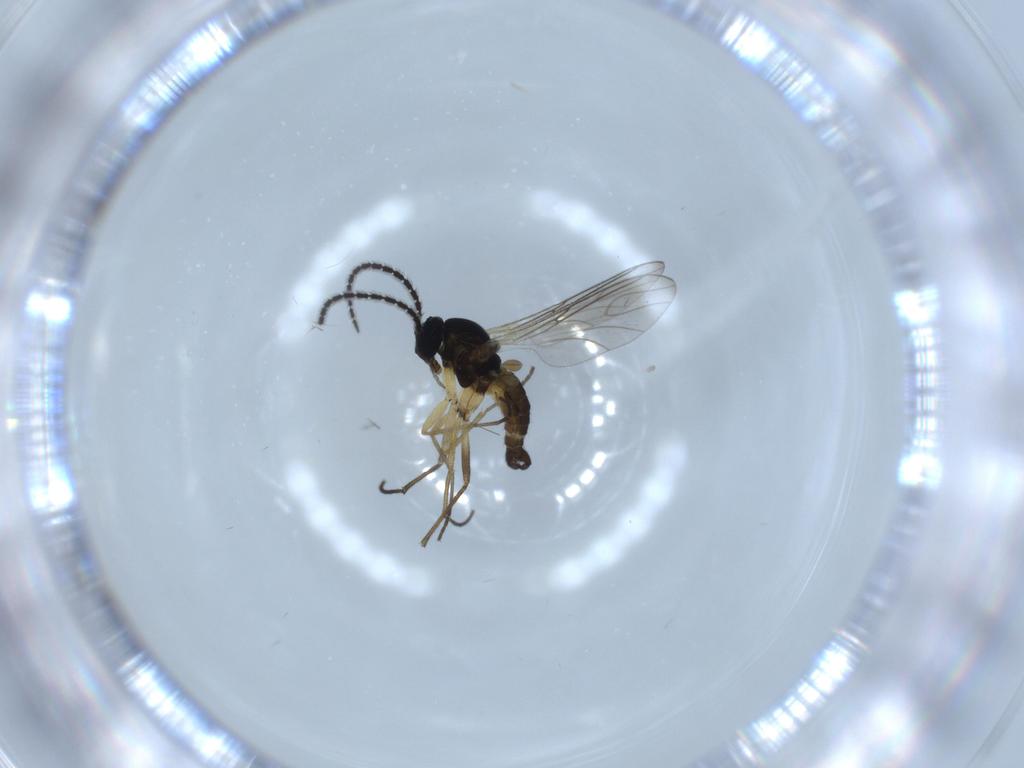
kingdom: Animalia
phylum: Arthropoda
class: Insecta
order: Diptera
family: Sciaridae
